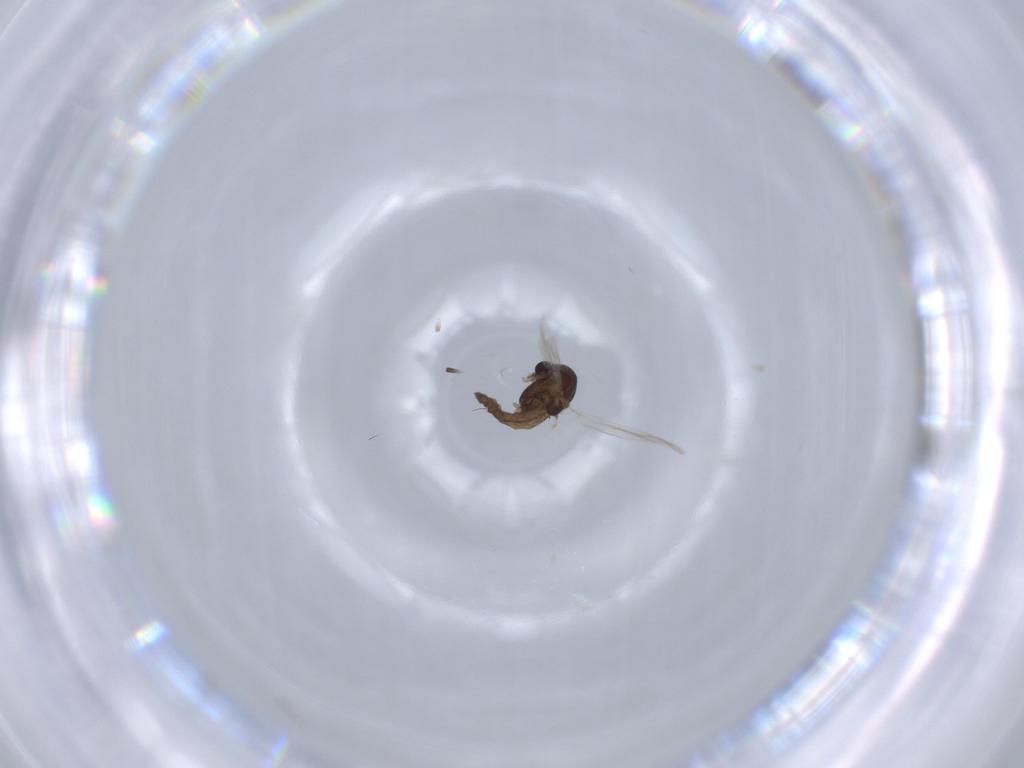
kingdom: Animalia
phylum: Arthropoda
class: Insecta
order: Diptera
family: Chironomidae
